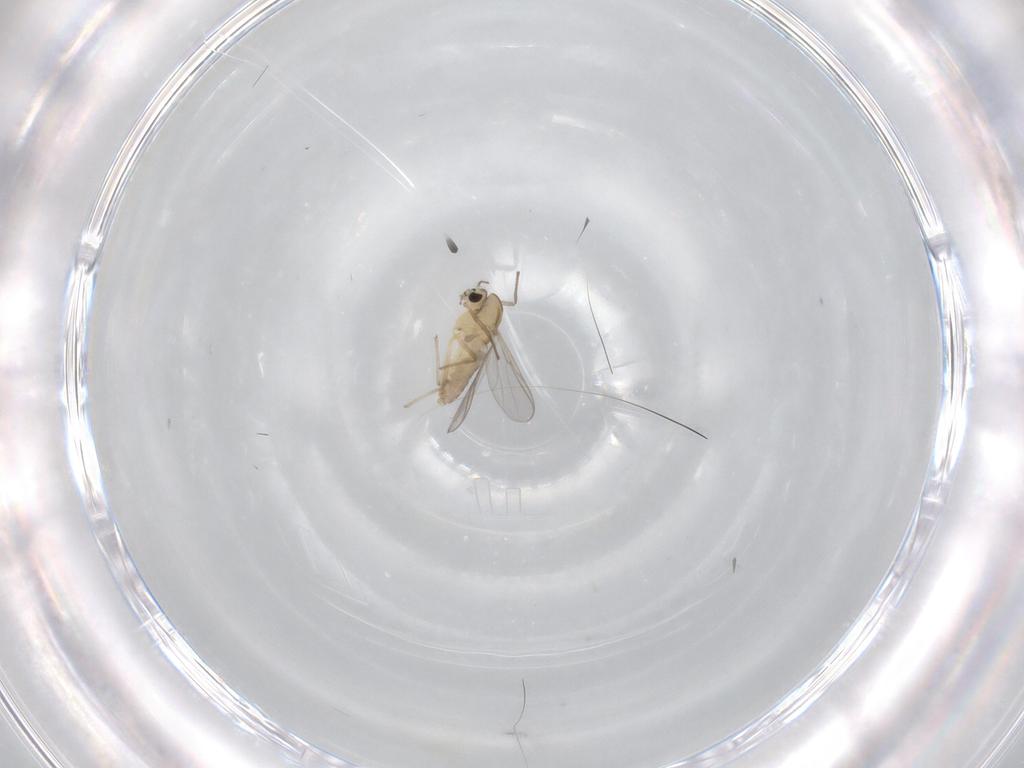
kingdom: Animalia
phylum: Arthropoda
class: Insecta
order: Diptera
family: Chironomidae
